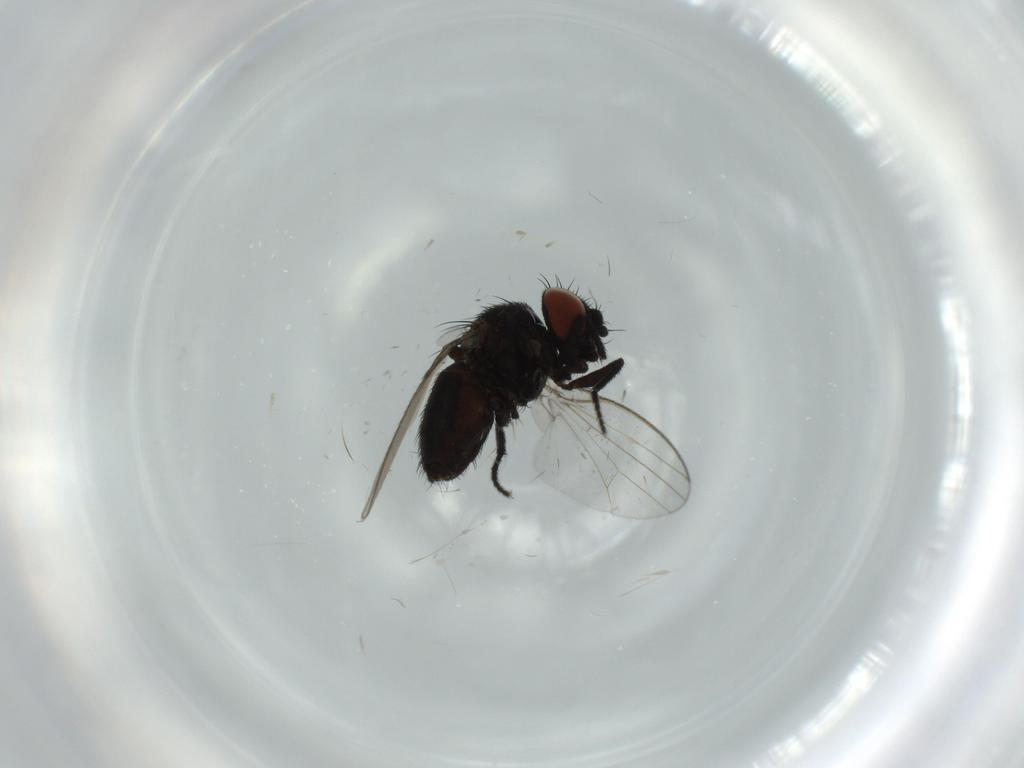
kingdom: Animalia
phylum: Arthropoda
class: Insecta
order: Diptera
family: Milichiidae
